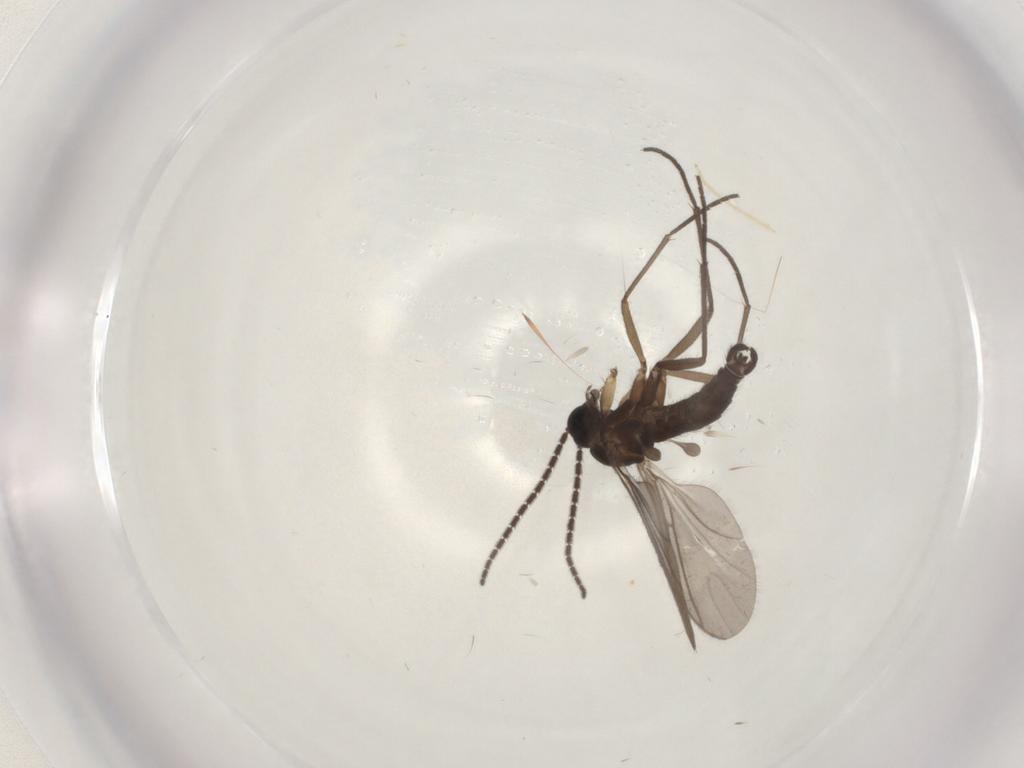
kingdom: Animalia
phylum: Arthropoda
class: Insecta
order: Diptera
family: Sciaridae
